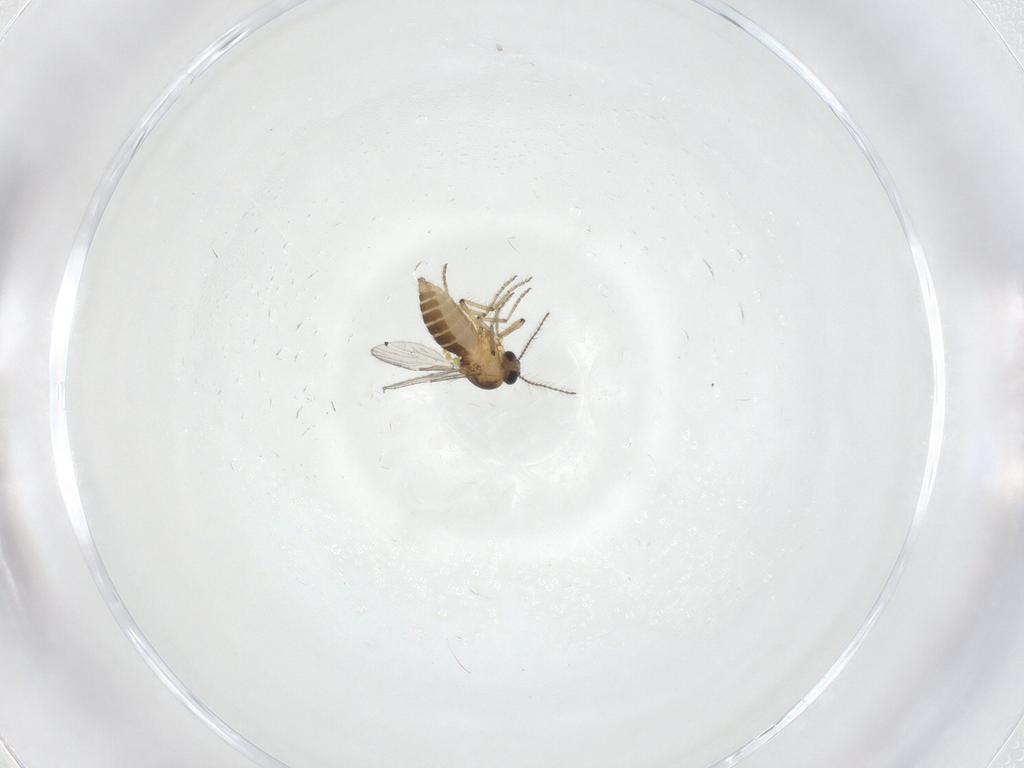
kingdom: Animalia
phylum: Arthropoda
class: Insecta
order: Diptera
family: Ceratopogonidae
